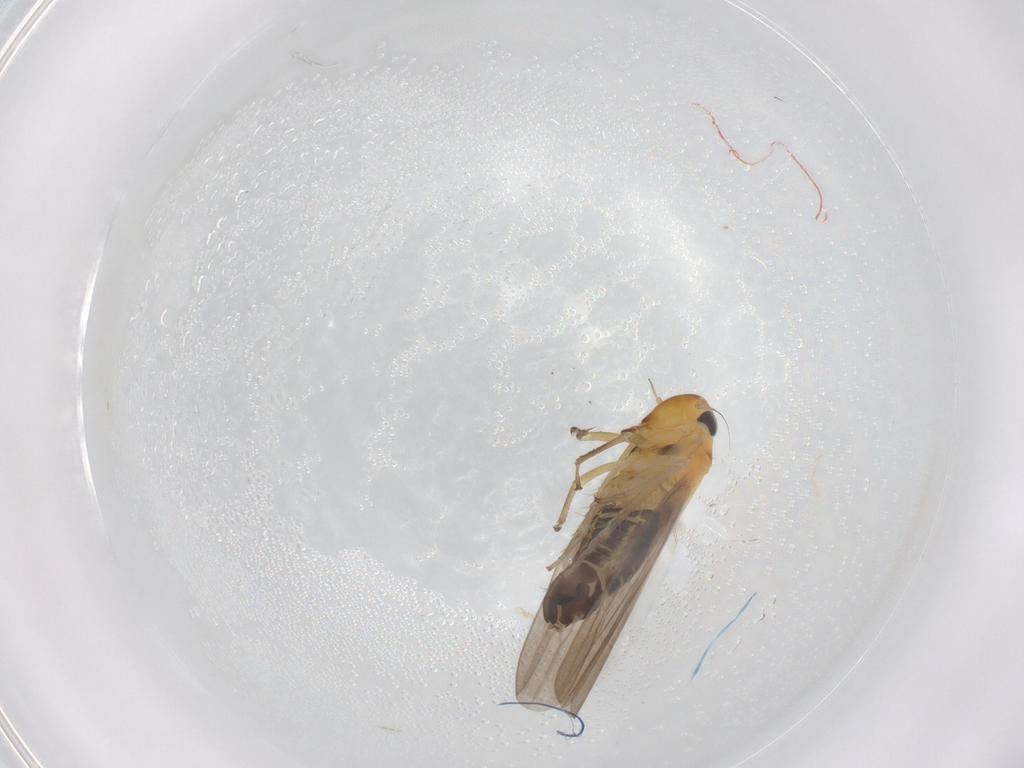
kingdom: Animalia
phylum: Arthropoda
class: Insecta
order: Hemiptera
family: Cicadellidae
